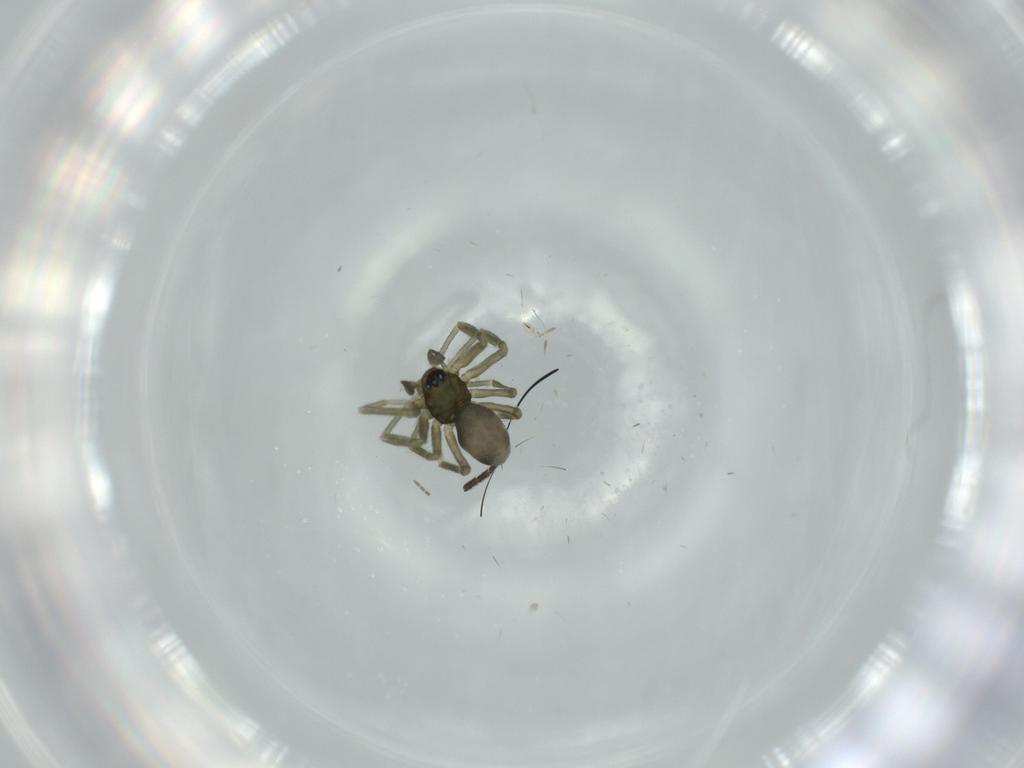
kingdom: Animalia
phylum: Arthropoda
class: Arachnida
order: Araneae
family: Linyphiidae
